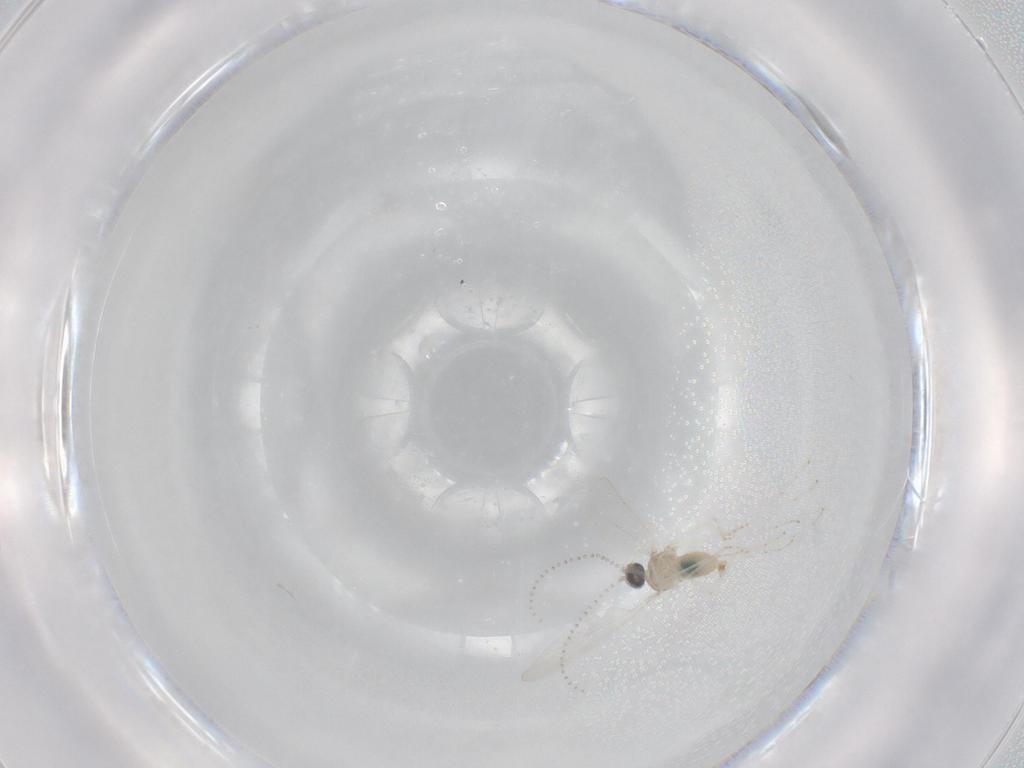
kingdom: Animalia
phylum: Arthropoda
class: Insecta
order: Diptera
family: Cecidomyiidae
